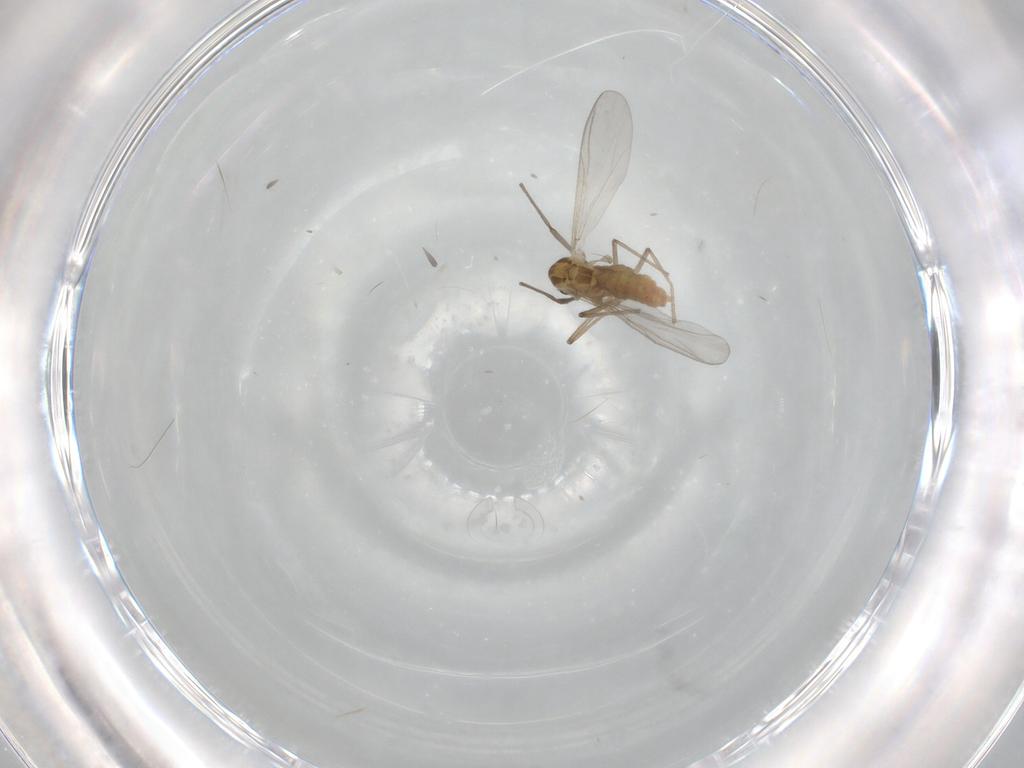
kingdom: Animalia
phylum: Arthropoda
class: Insecta
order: Diptera
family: Chironomidae
